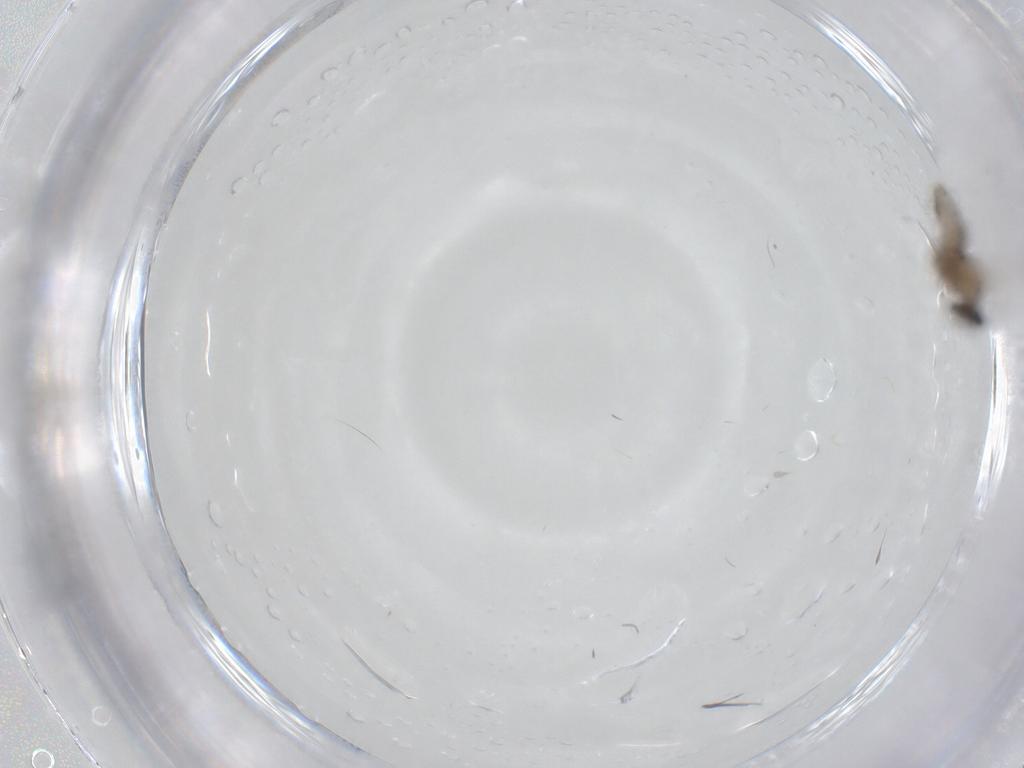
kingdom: Animalia
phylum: Arthropoda
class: Insecta
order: Diptera
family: Cecidomyiidae
